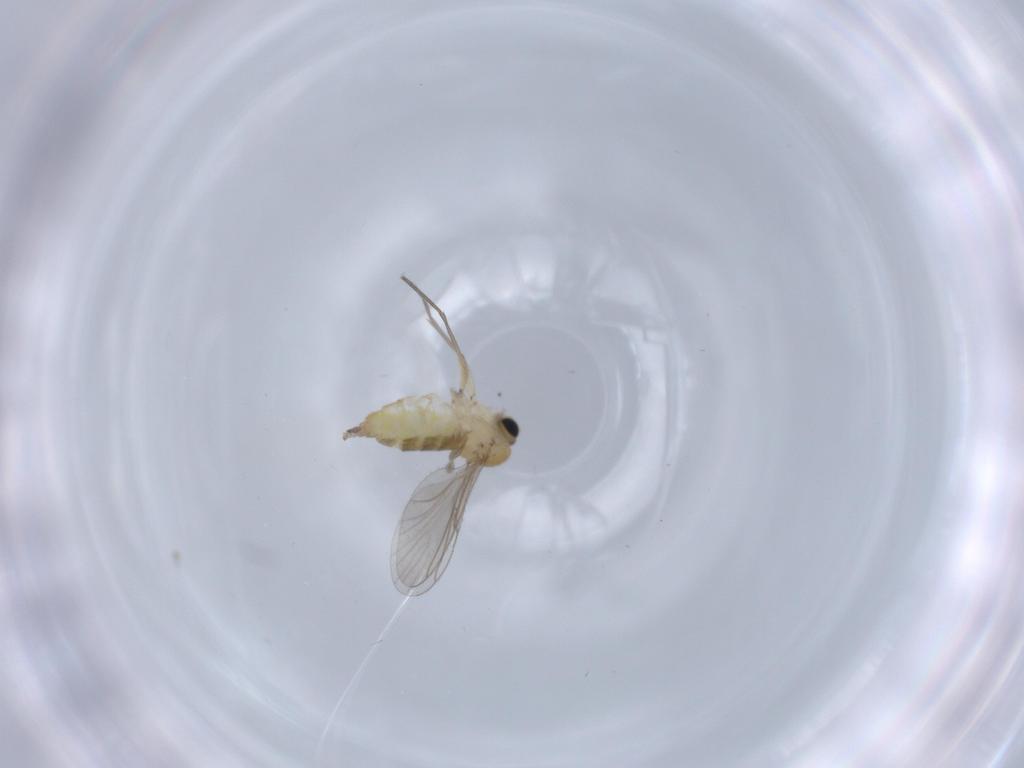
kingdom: Animalia
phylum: Arthropoda
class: Insecta
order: Diptera
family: Sciaridae
